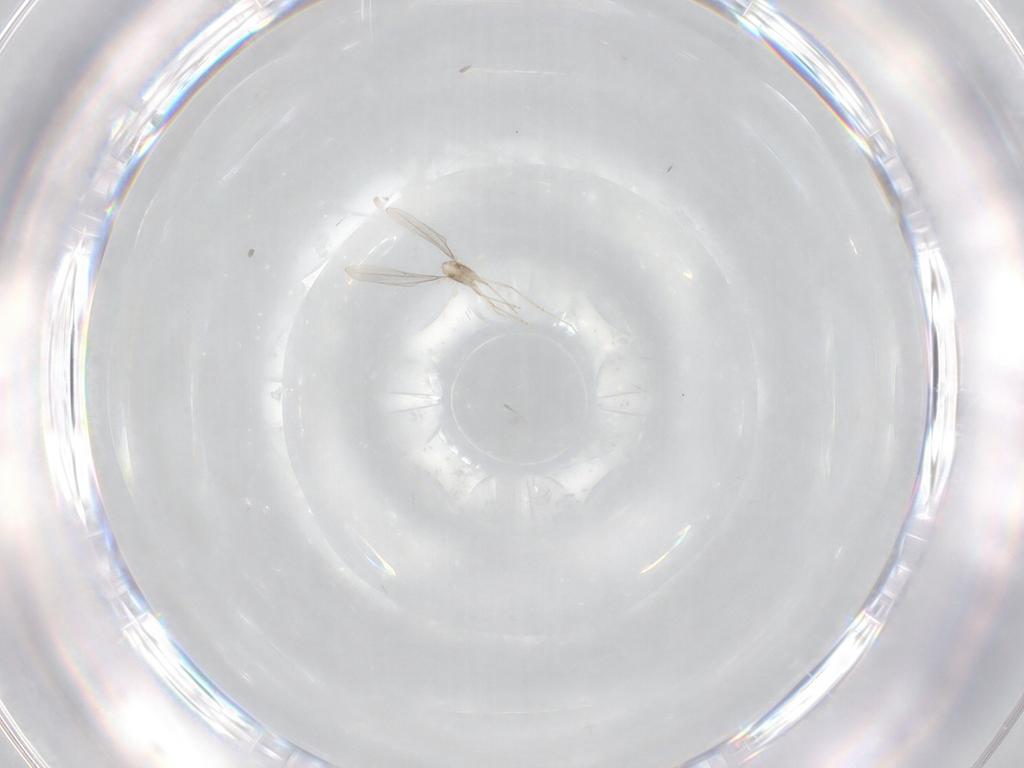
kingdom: Animalia
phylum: Arthropoda
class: Insecta
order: Diptera
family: Cecidomyiidae
